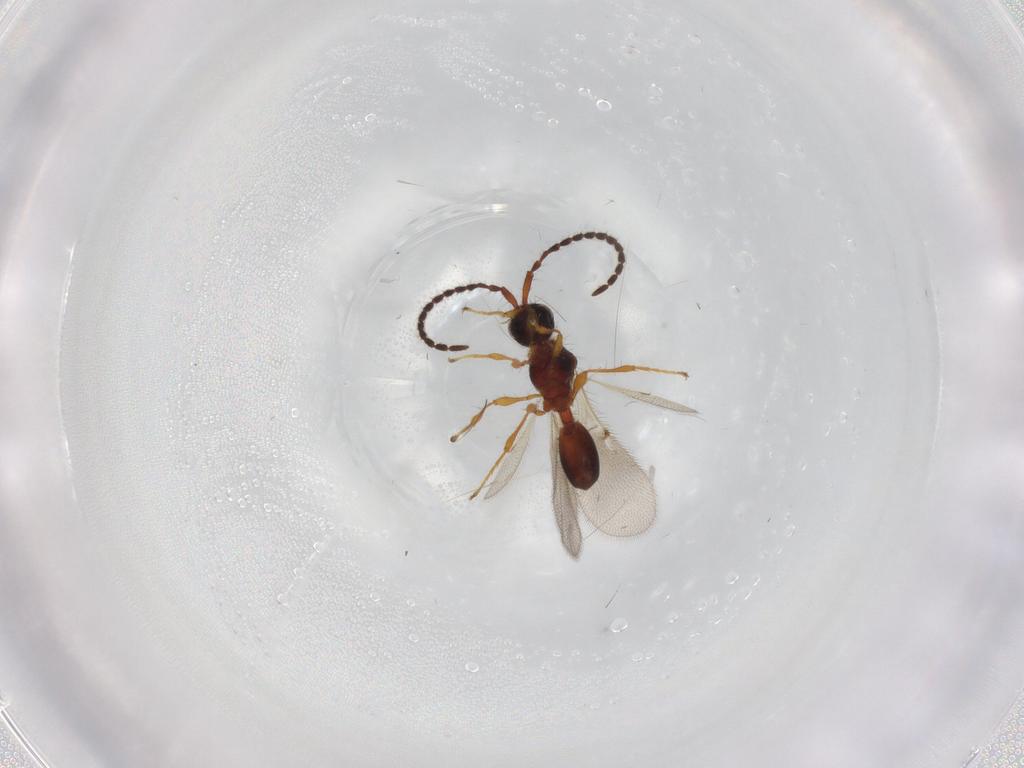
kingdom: Animalia
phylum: Arthropoda
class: Insecta
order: Hymenoptera
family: Diapriidae
